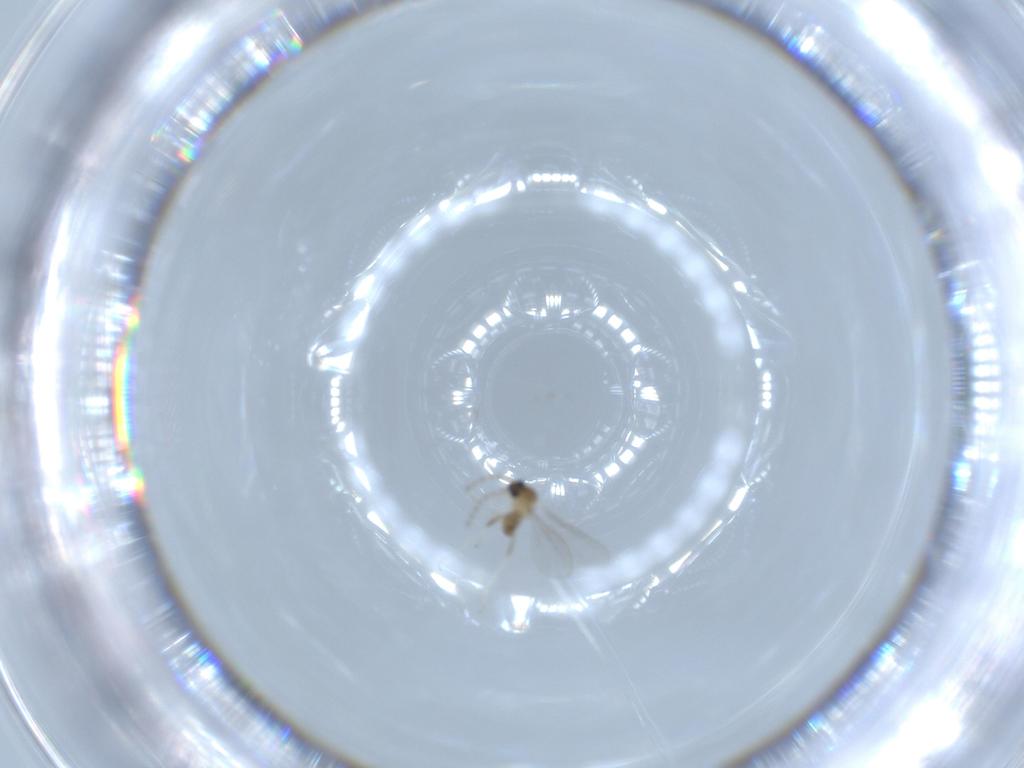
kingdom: Animalia
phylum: Arthropoda
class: Insecta
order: Diptera
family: Cecidomyiidae
